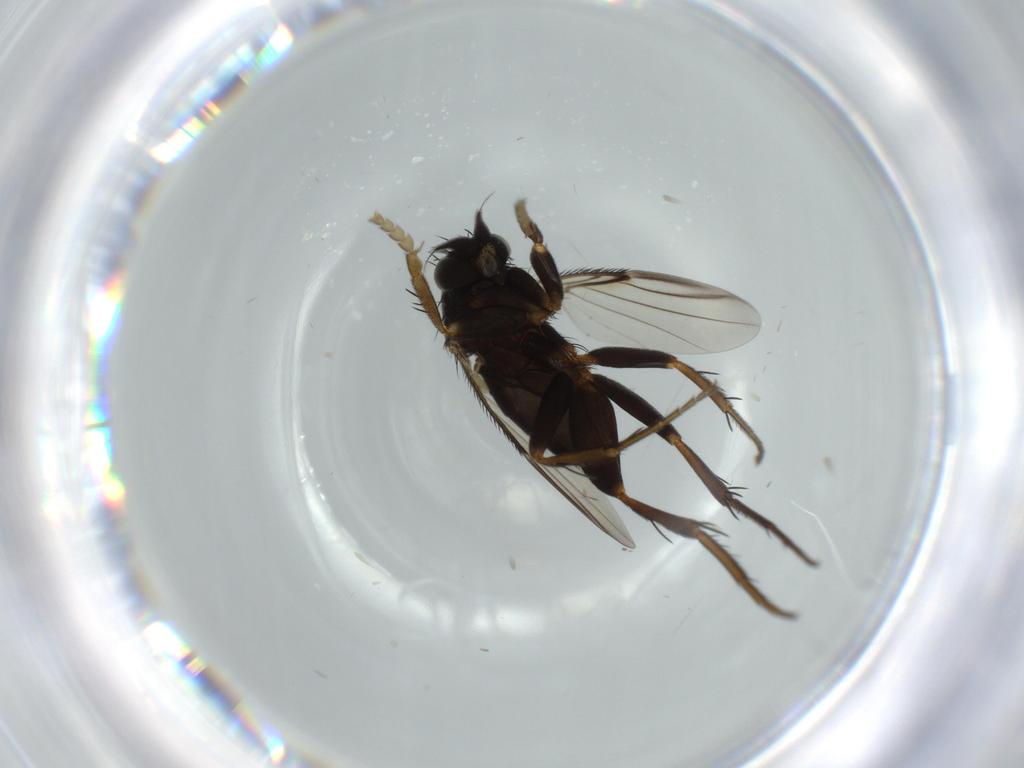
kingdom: Animalia
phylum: Arthropoda
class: Insecta
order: Diptera
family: Phoridae
